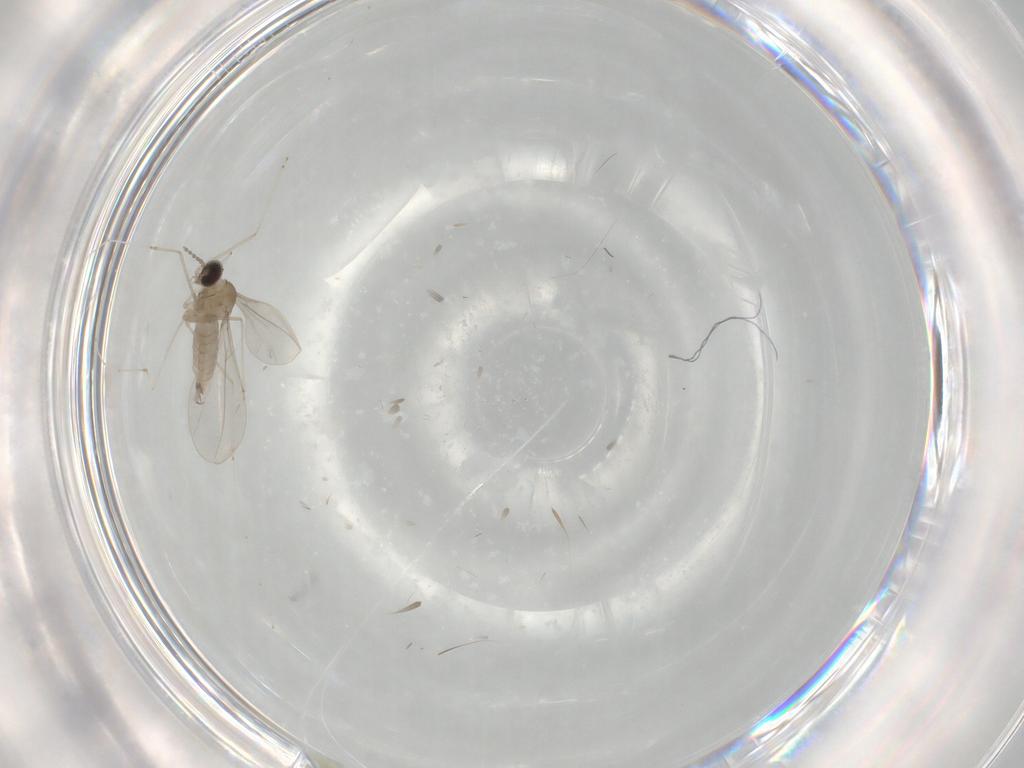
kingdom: Animalia
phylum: Arthropoda
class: Insecta
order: Diptera
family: Cecidomyiidae
